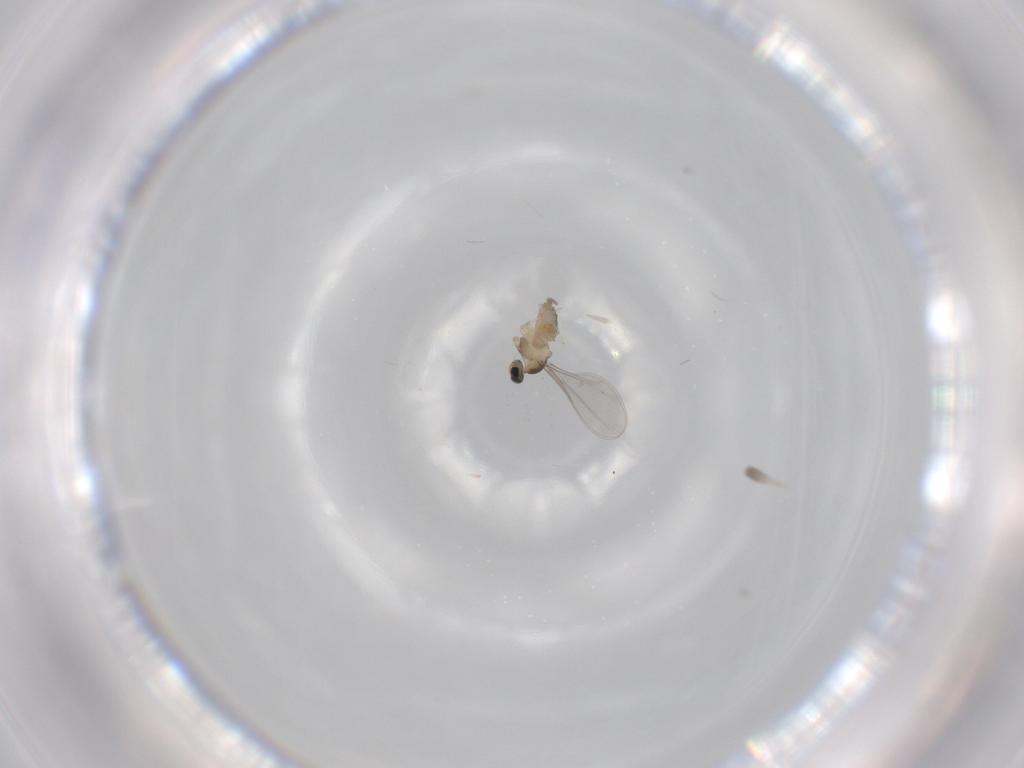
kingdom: Animalia
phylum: Arthropoda
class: Insecta
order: Diptera
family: Cecidomyiidae
